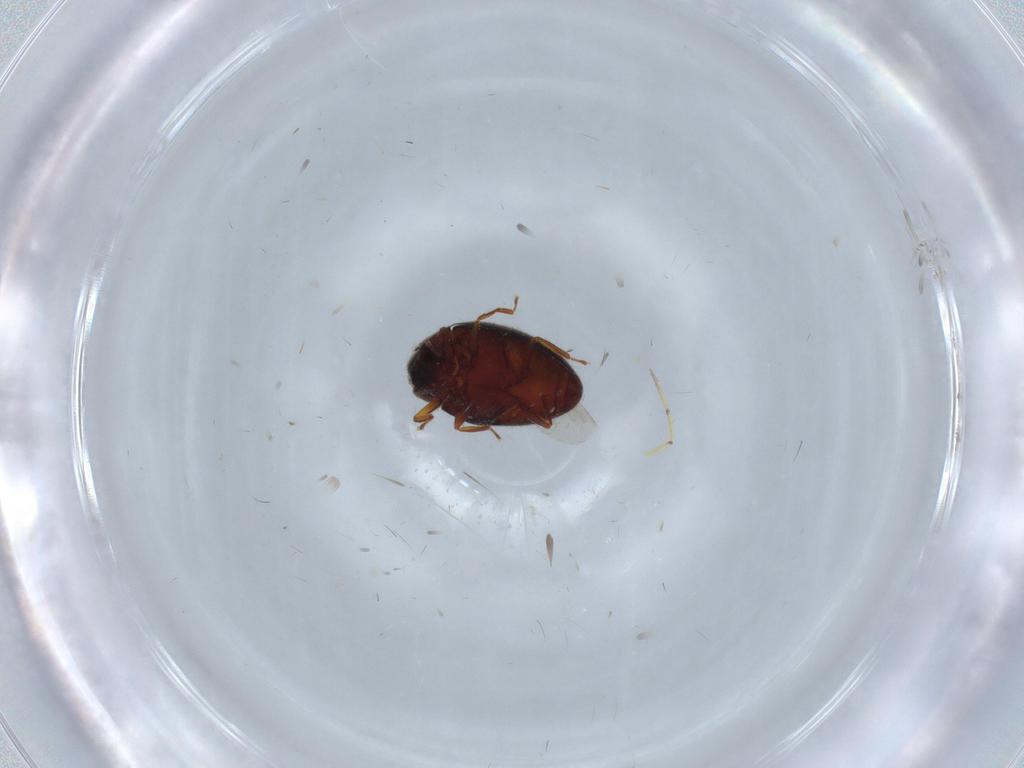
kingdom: Animalia
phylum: Arthropoda
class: Insecta
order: Coleoptera
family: Limnichidae
